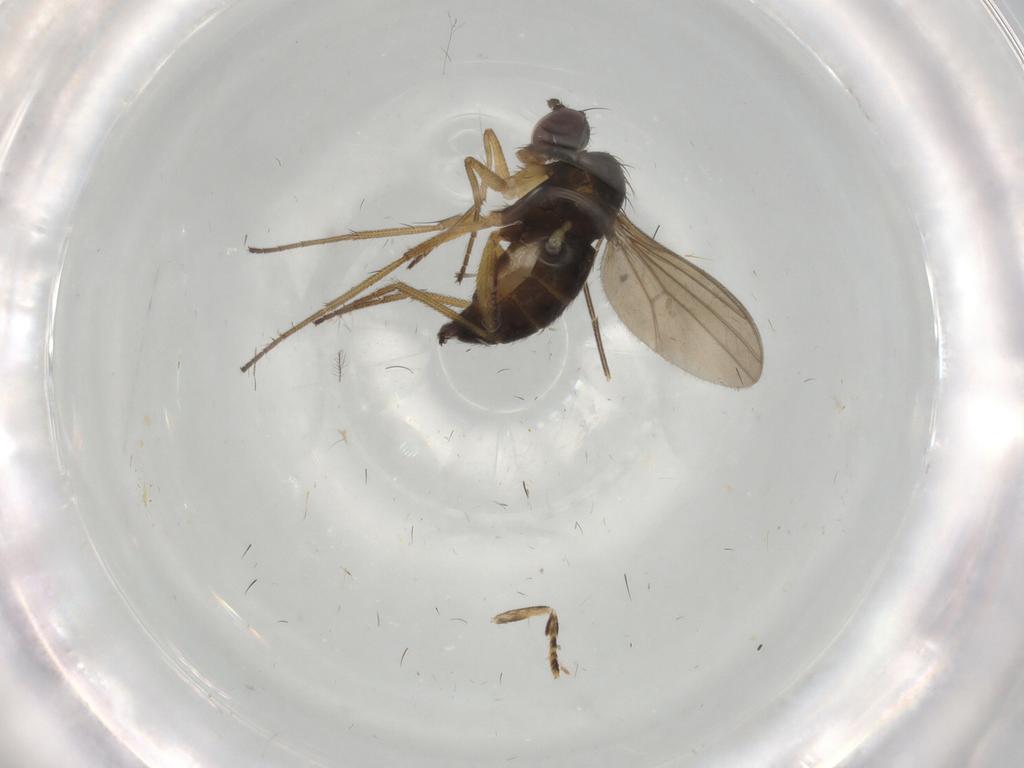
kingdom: Animalia
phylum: Arthropoda
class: Insecta
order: Diptera
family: Dolichopodidae
